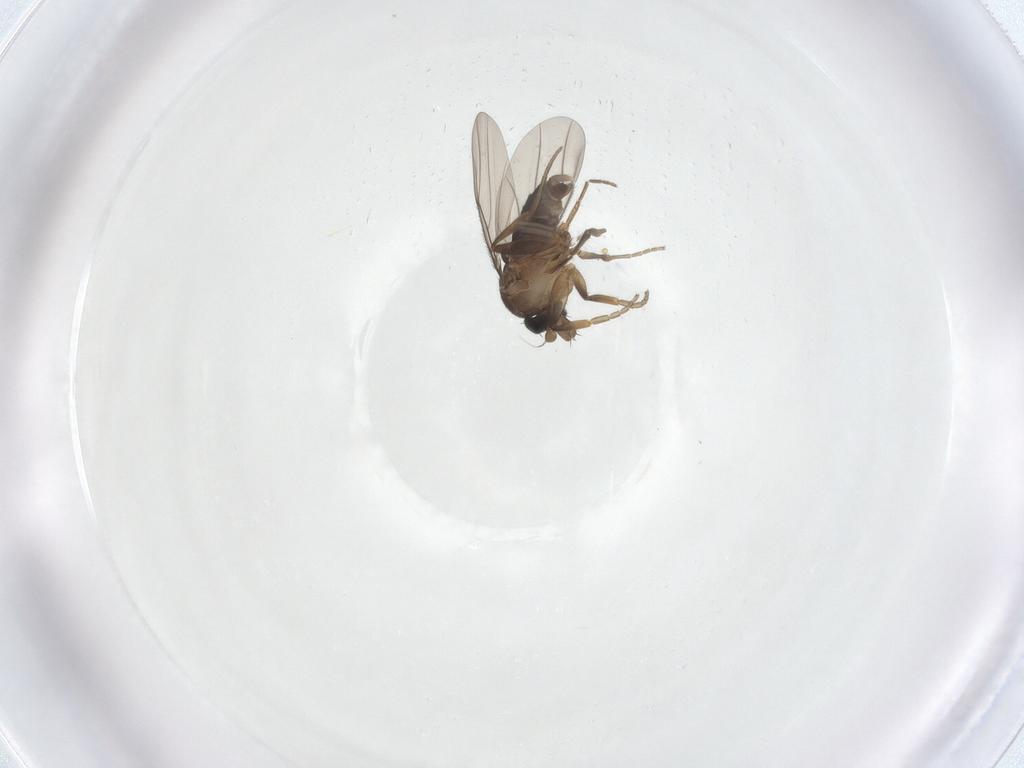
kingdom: Animalia
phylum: Arthropoda
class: Insecta
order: Diptera
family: Phoridae
